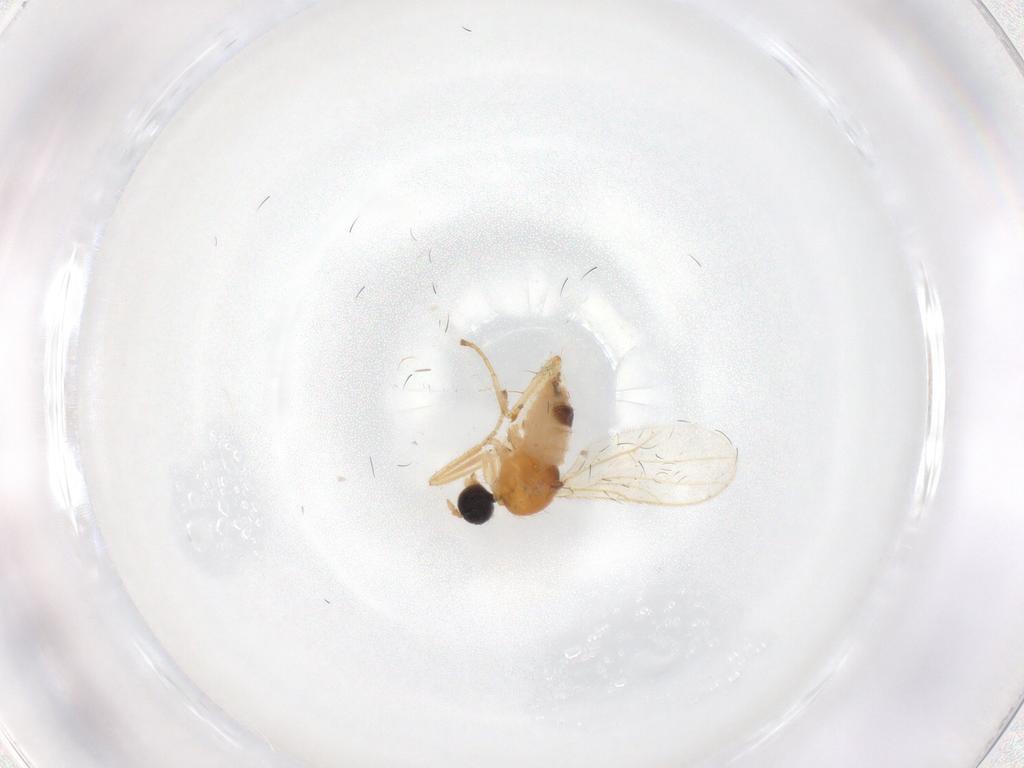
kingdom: Animalia
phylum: Arthropoda
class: Insecta
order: Diptera
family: Hybotidae
